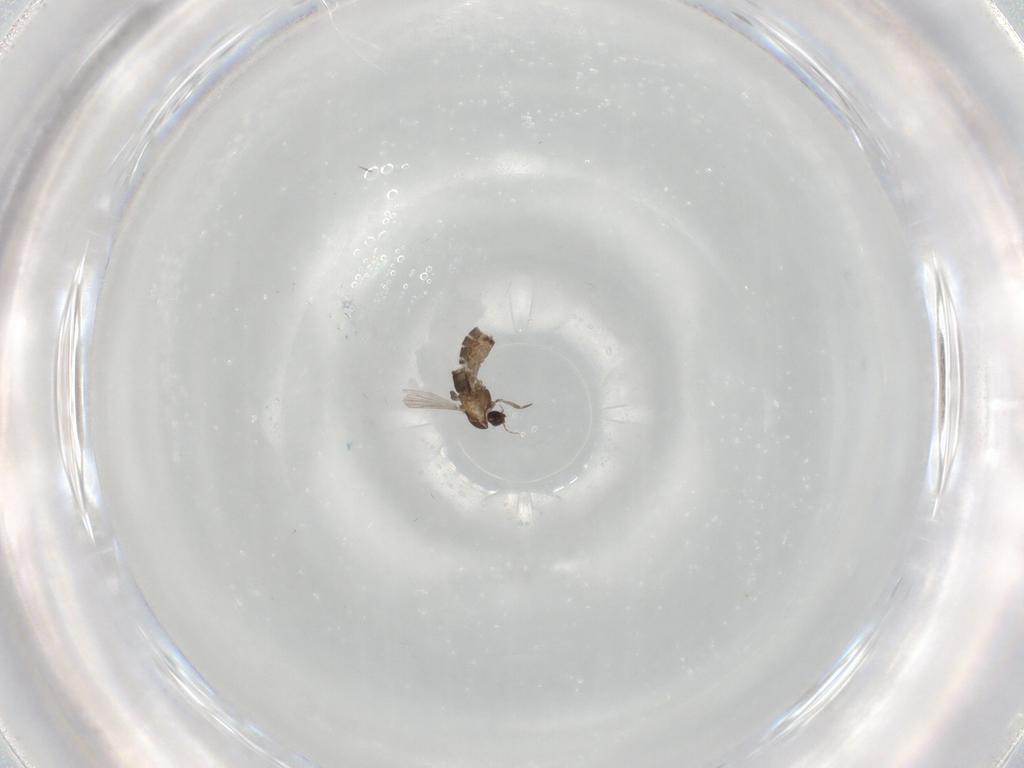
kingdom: Animalia
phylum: Arthropoda
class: Insecta
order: Diptera
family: Chironomidae
